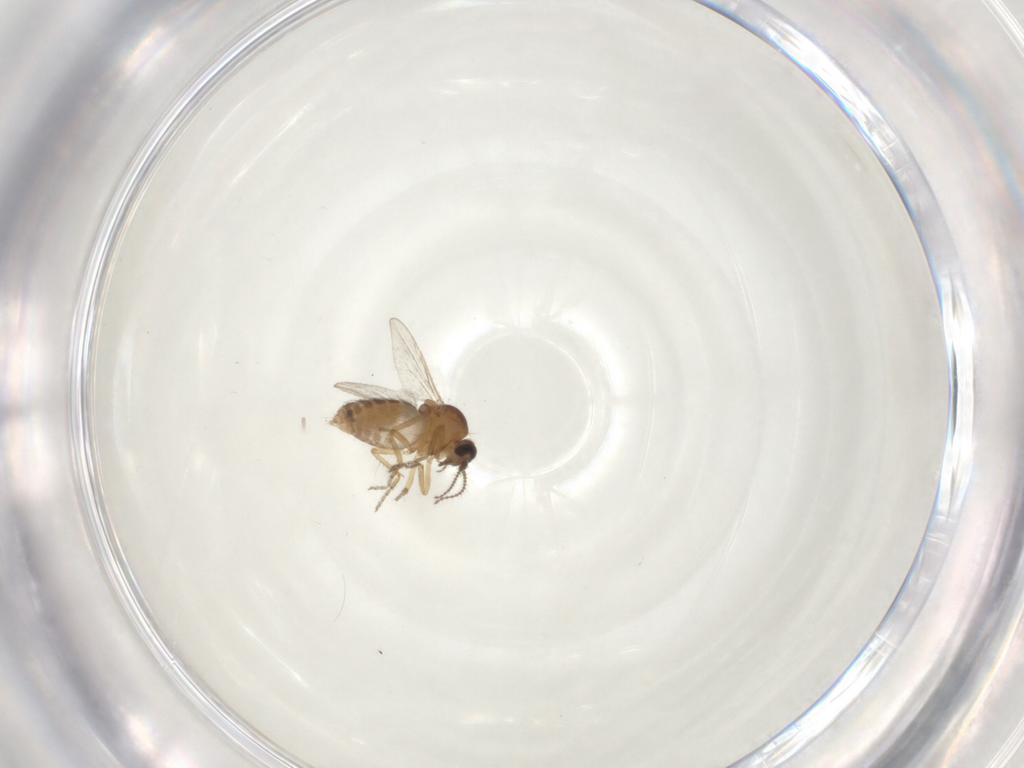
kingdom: Animalia
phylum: Arthropoda
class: Insecta
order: Diptera
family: Ceratopogonidae
